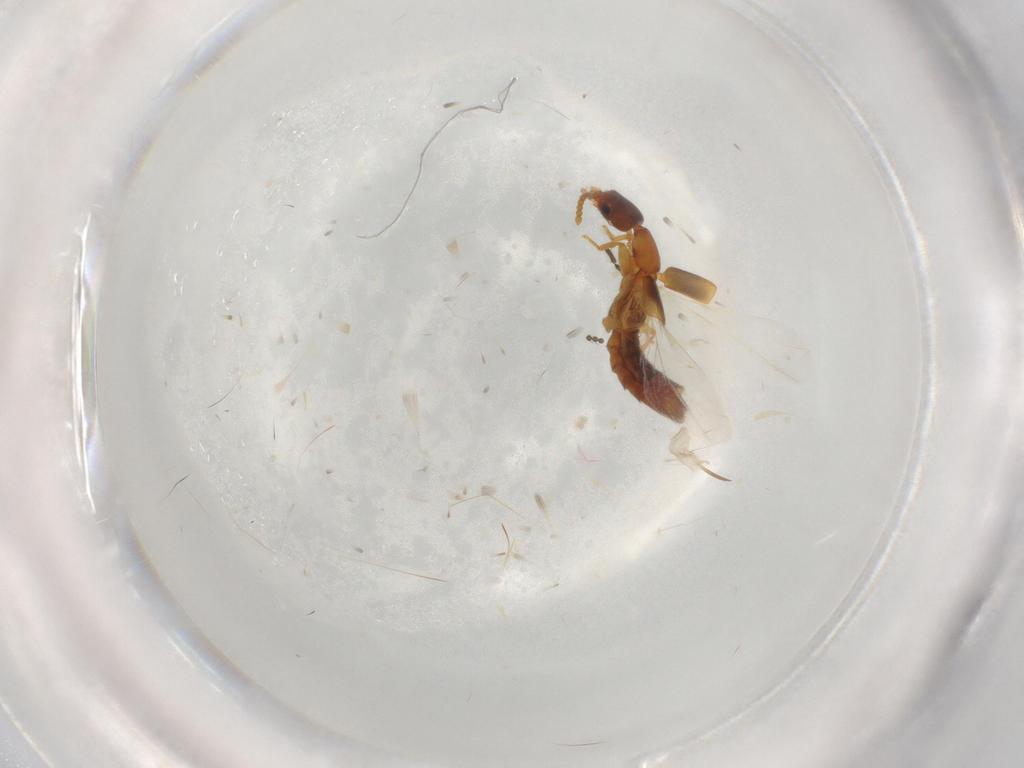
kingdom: Animalia
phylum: Arthropoda
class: Insecta
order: Coleoptera
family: Staphylinidae
